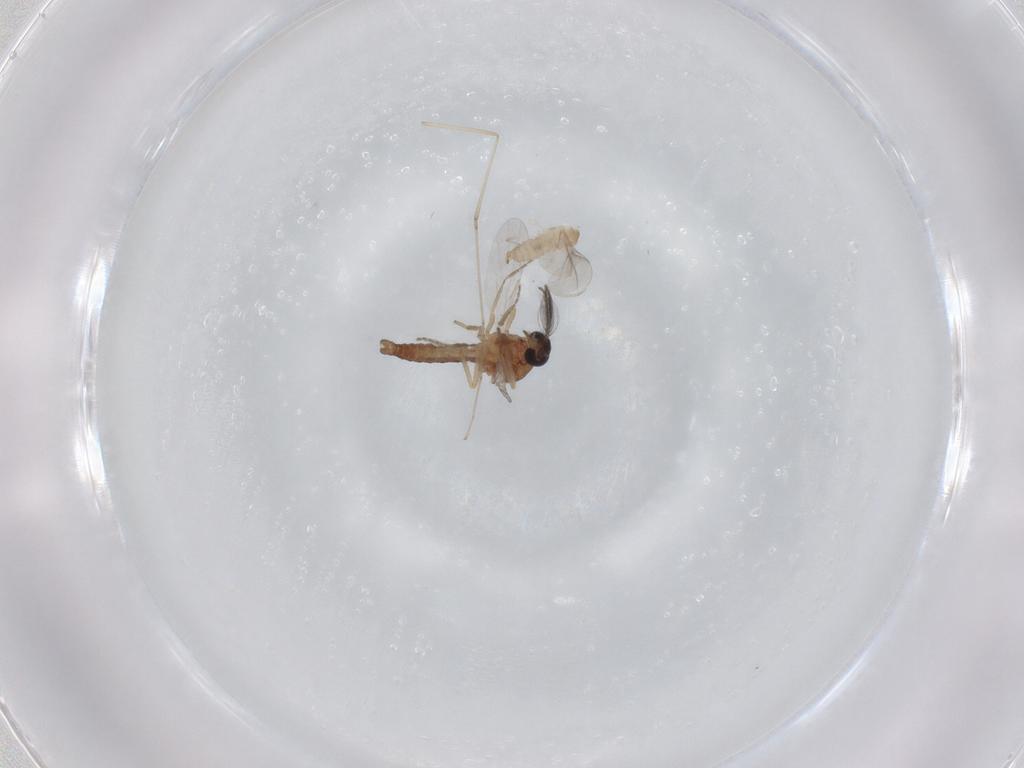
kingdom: Animalia
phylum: Arthropoda
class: Insecta
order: Diptera
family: Ceratopogonidae
